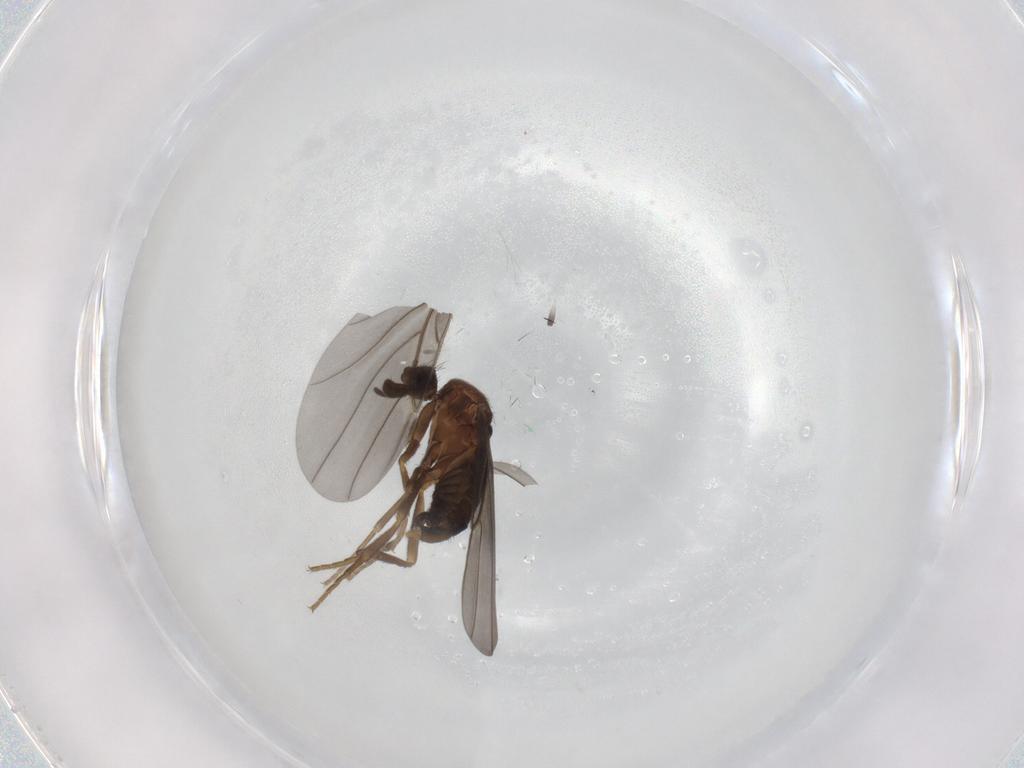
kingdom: Animalia
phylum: Arthropoda
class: Insecta
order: Diptera
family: Phoridae
